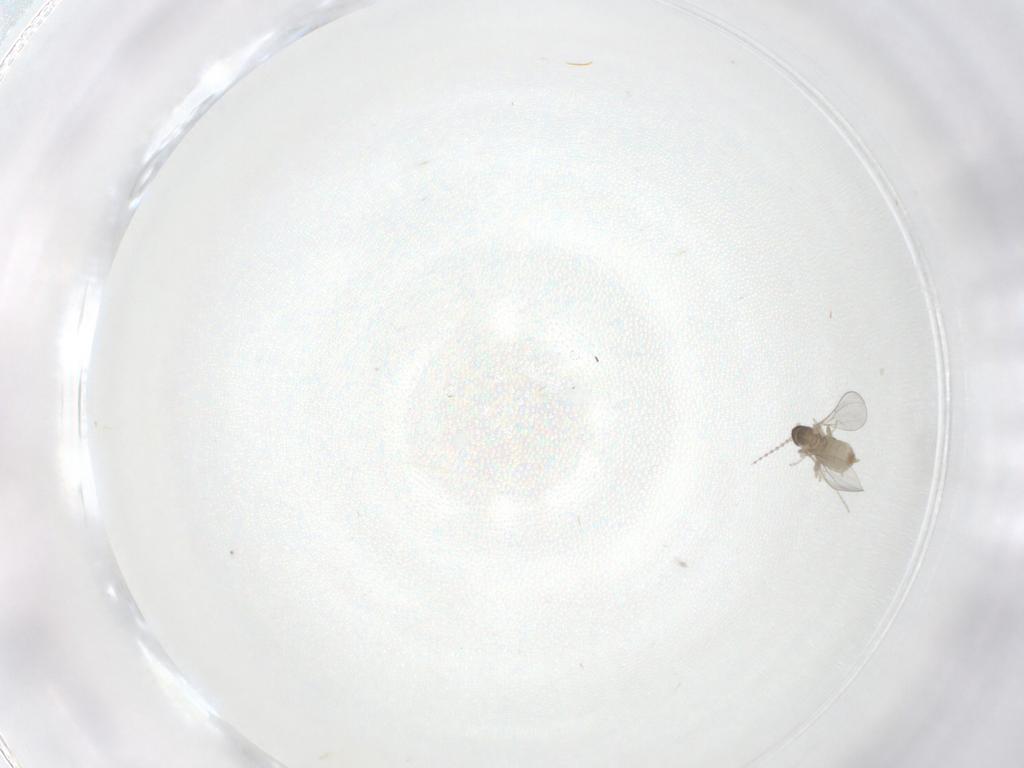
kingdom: Animalia
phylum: Arthropoda
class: Insecta
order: Diptera
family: Cecidomyiidae
